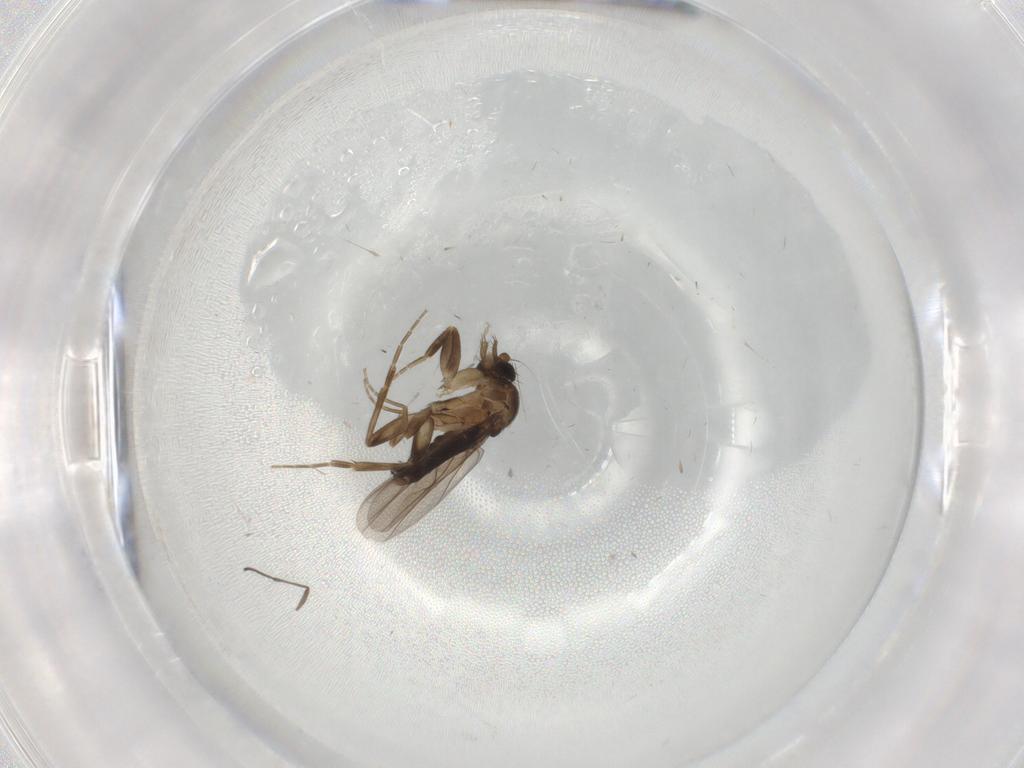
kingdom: Animalia
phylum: Arthropoda
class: Insecta
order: Diptera
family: Phoridae
